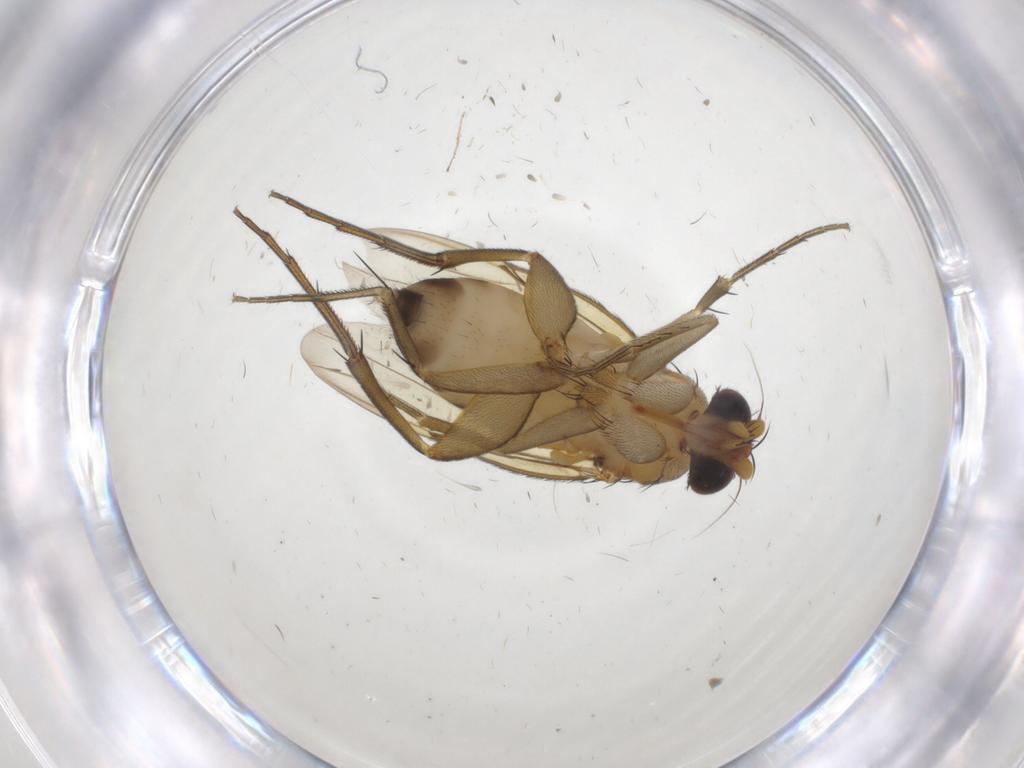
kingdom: Animalia
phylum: Arthropoda
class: Insecta
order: Diptera
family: Phoridae
